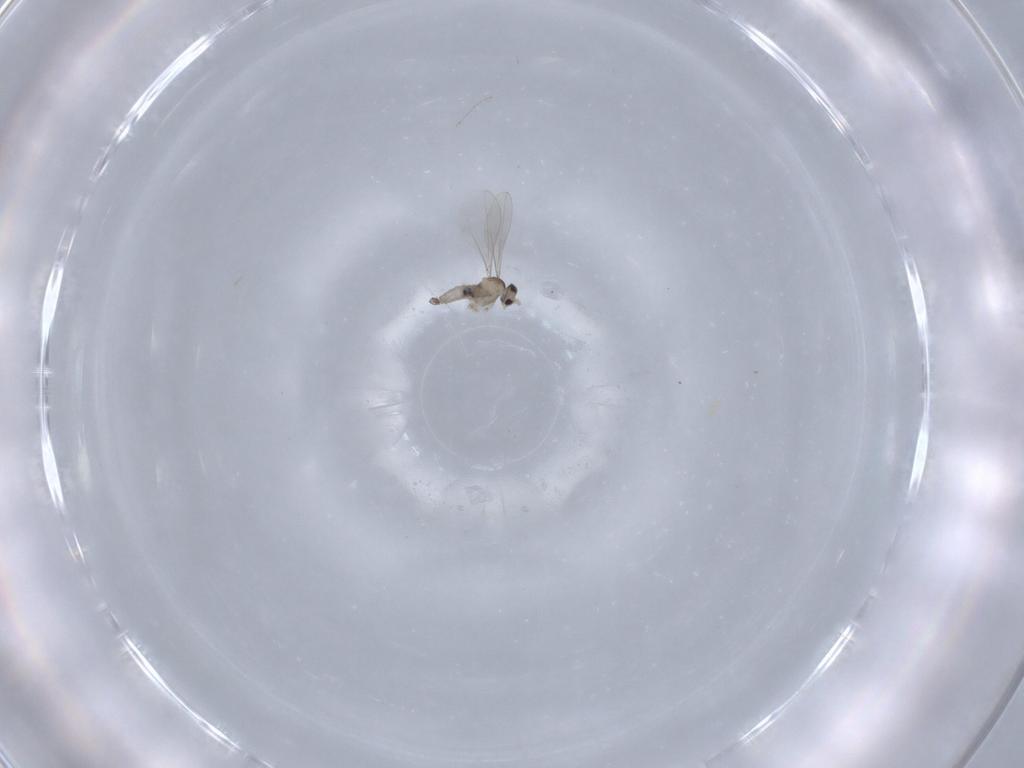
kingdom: Animalia
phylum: Arthropoda
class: Insecta
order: Diptera
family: Cecidomyiidae
